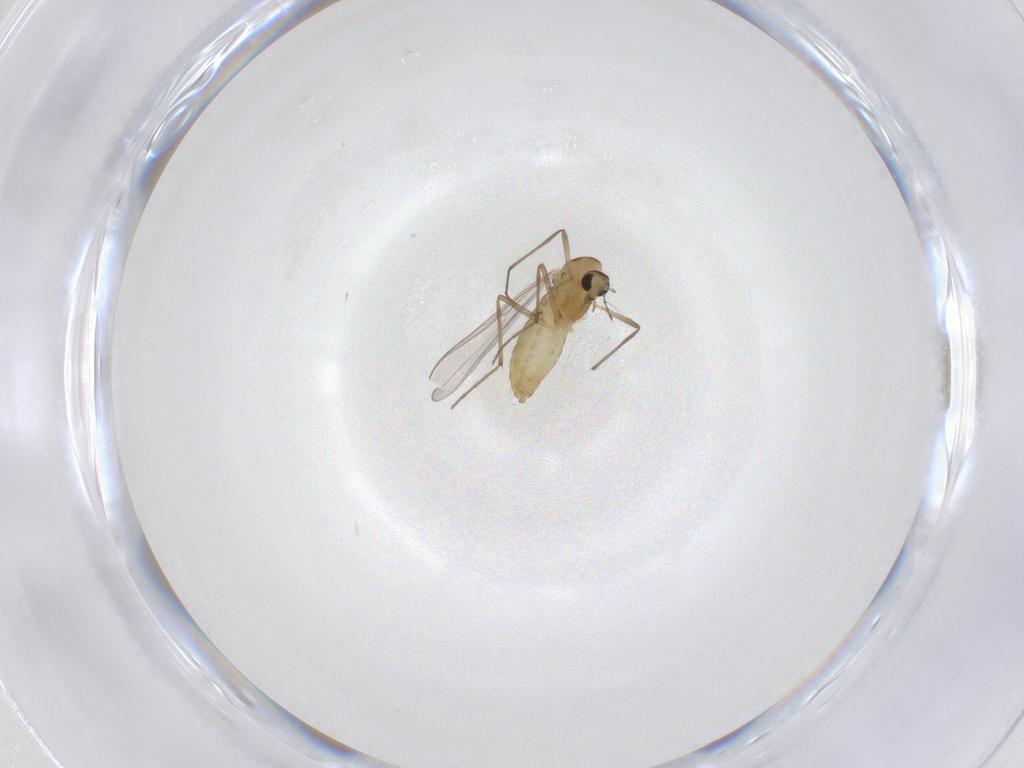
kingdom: Animalia
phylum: Arthropoda
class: Insecta
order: Diptera
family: Chironomidae
